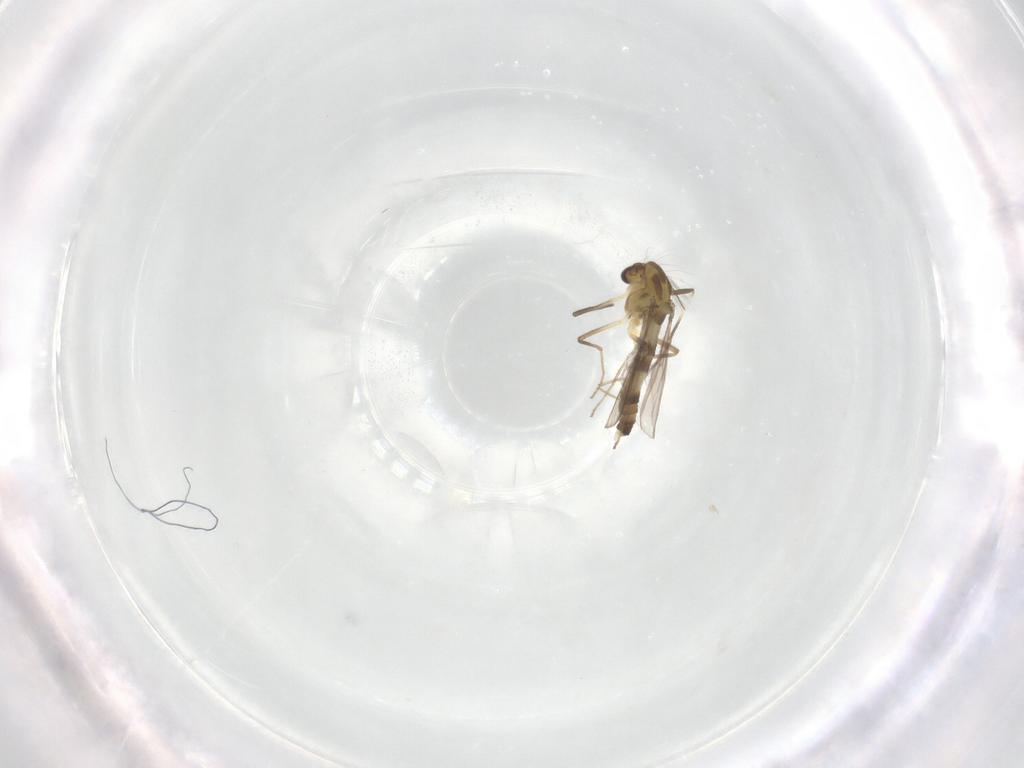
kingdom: Animalia
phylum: Arthropoda
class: Insecta
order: Diptera
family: Chironomidae
